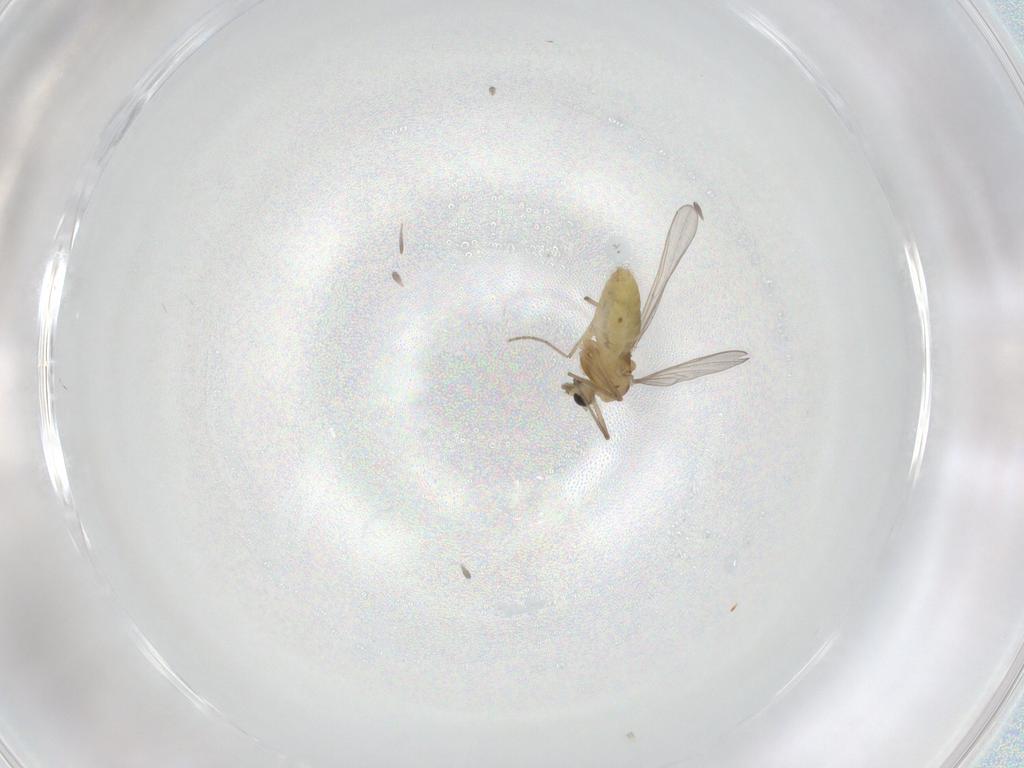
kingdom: Animalia
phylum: Arthropoda
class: Insecta
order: Diptera
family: Chironomidae
